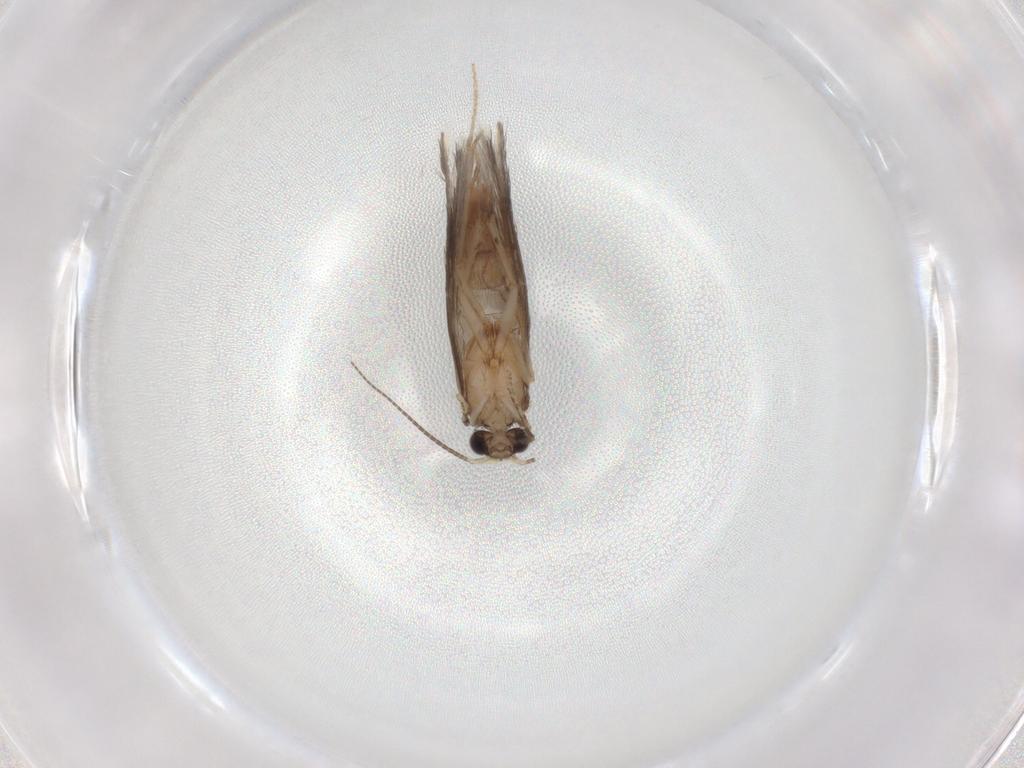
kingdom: Animalia
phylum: Arthropoda
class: Insecta
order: Trichoptera
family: Hydroptilidae
